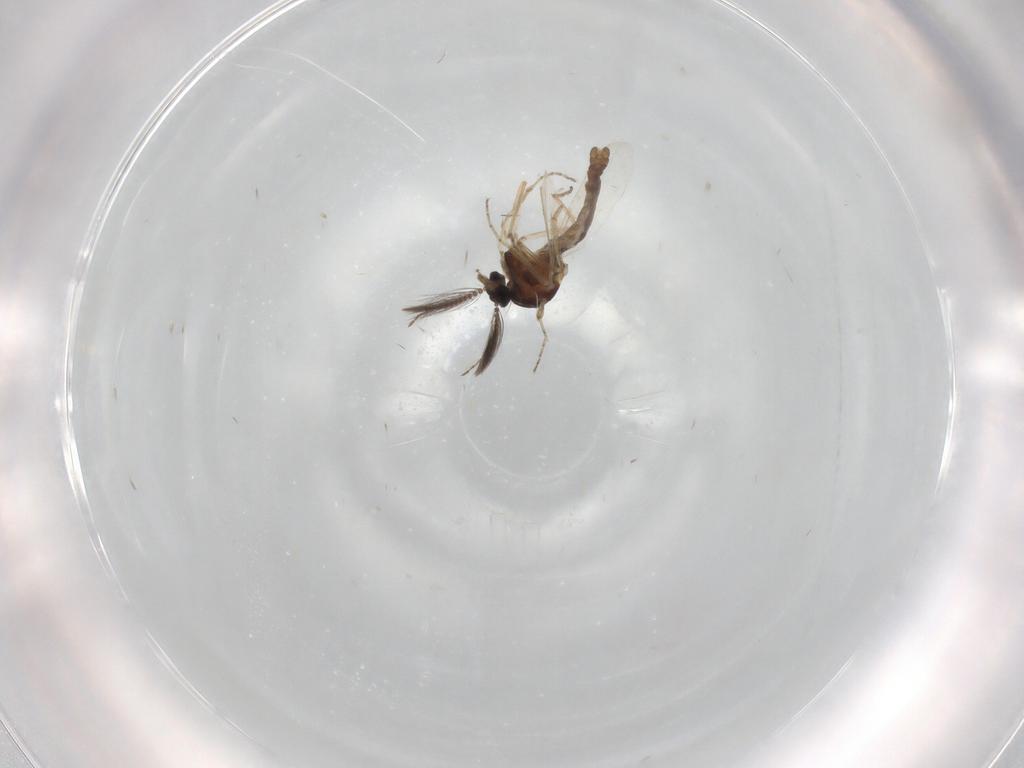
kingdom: Animalia
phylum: Arthropoda
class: Insecta
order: Diptera
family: Ceratopogonidae
